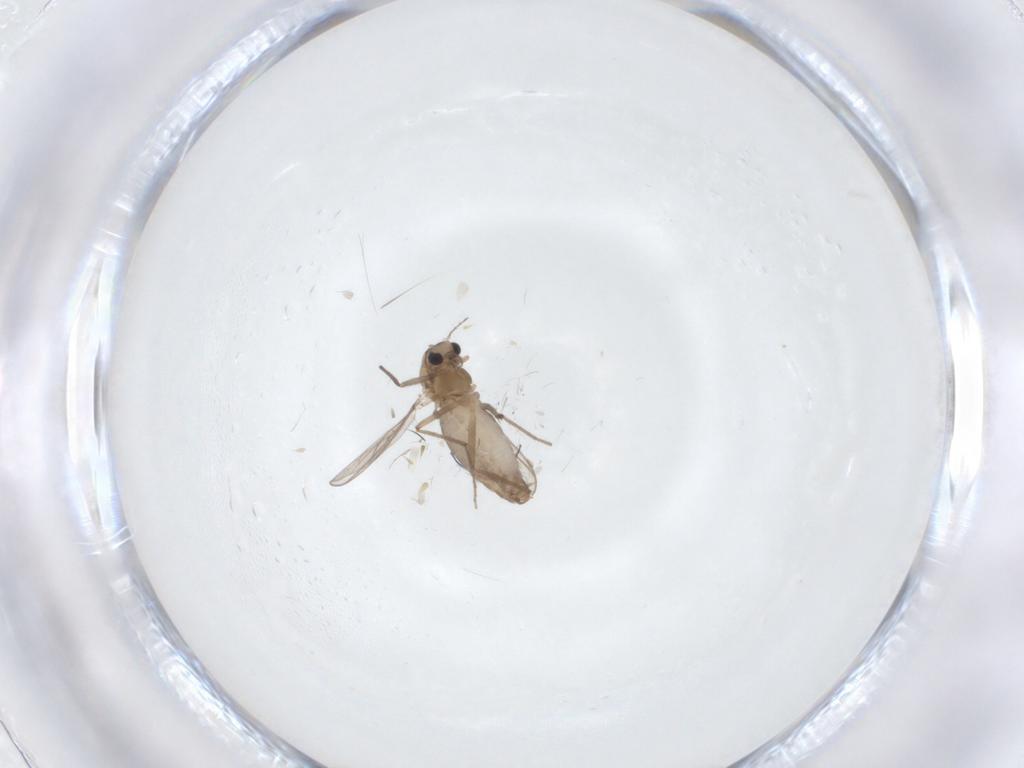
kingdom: Animalia
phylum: Arthropoda
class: Insecta
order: Diptera
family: Chironomidae
